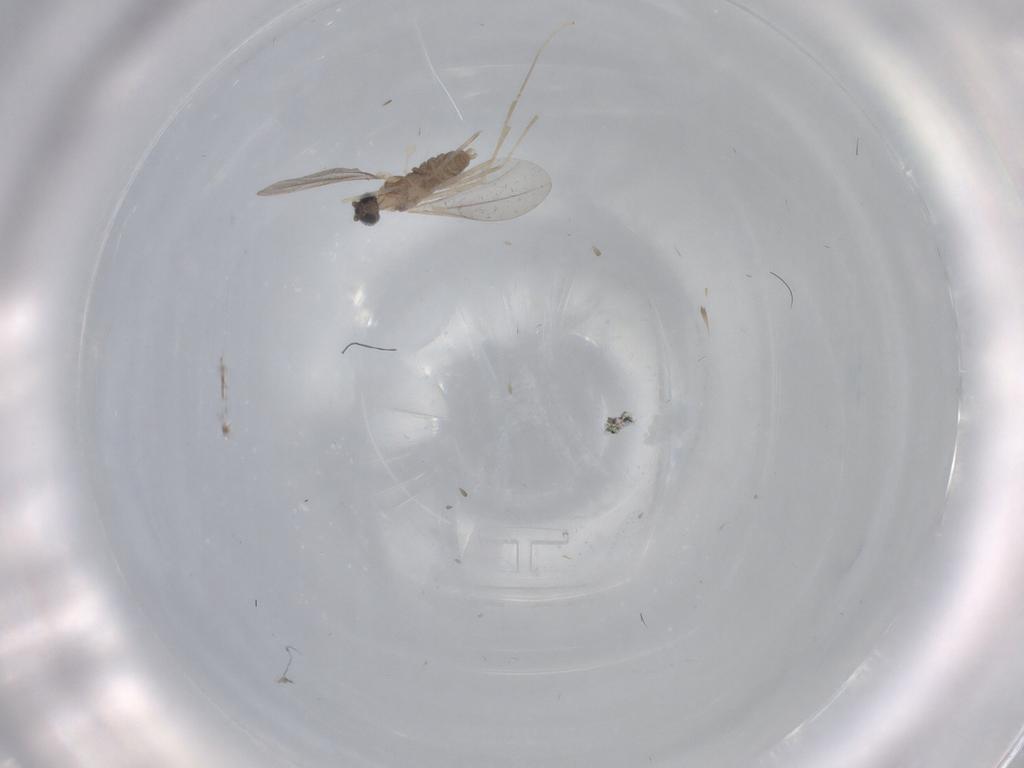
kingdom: Animalia
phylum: Arthropoda
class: Insecta
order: Diptera
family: Cecidomyiidae
